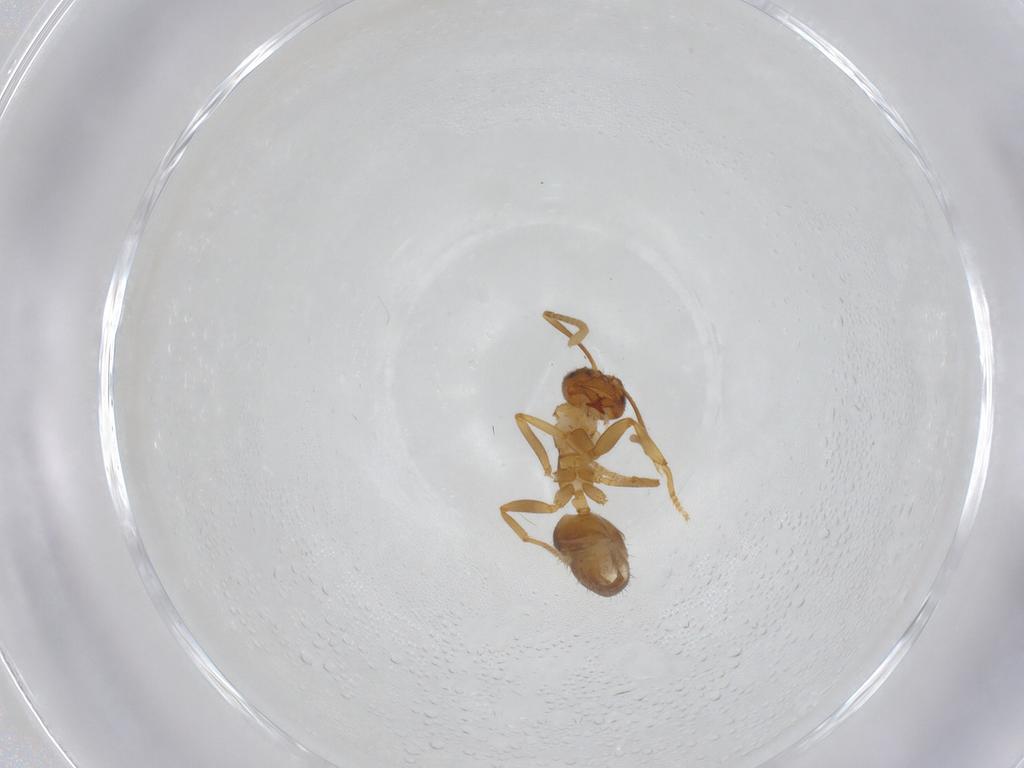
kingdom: Animalia
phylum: Arthropoda
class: Insecta
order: Hymenoptera
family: Formicidae
